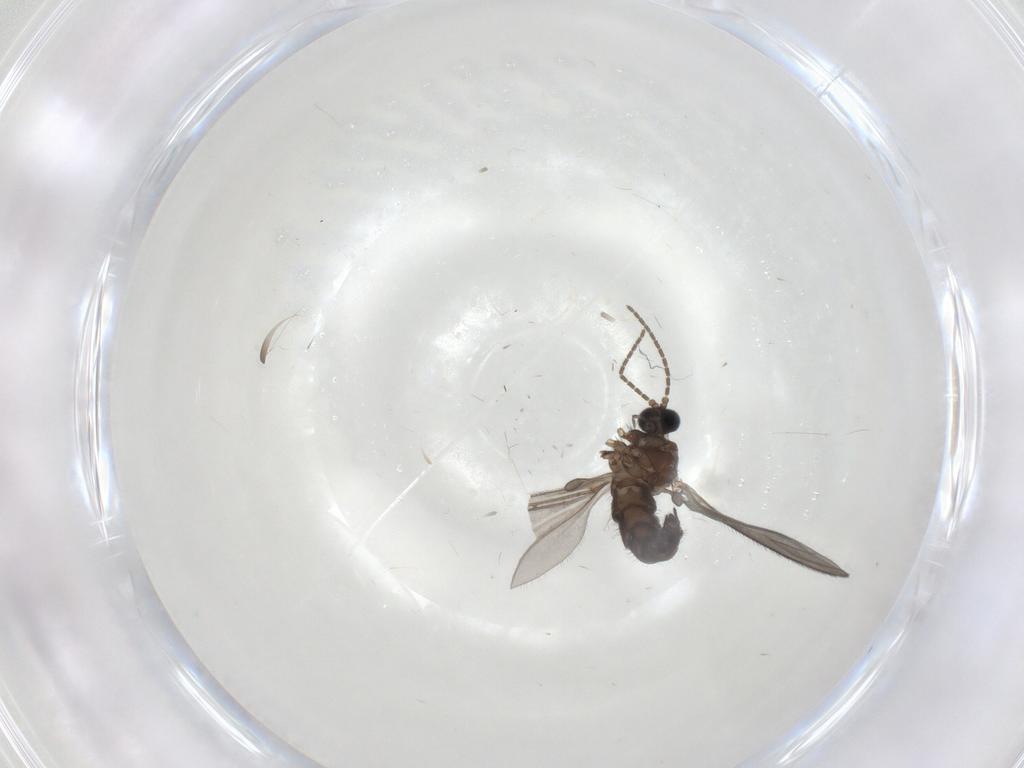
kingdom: Animalia
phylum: Arthropoda
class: Insecta
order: Diptera
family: Sciaridae
